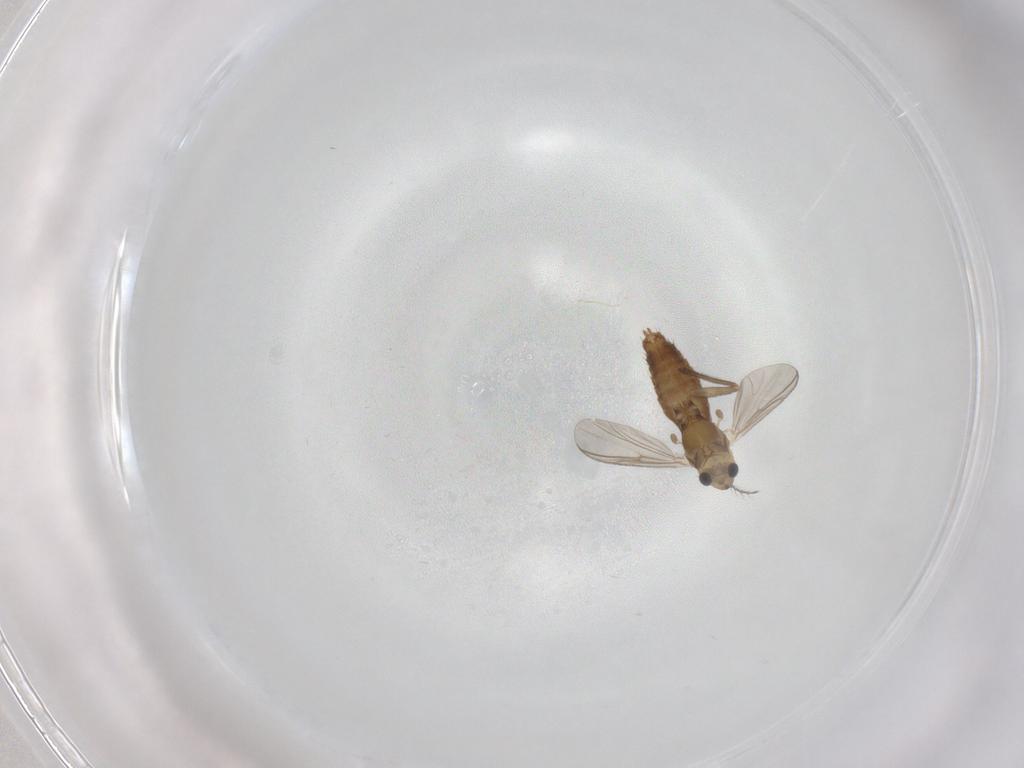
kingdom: Animalia
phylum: Arthropoda
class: Insecta
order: Diptera
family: Chironomidae
